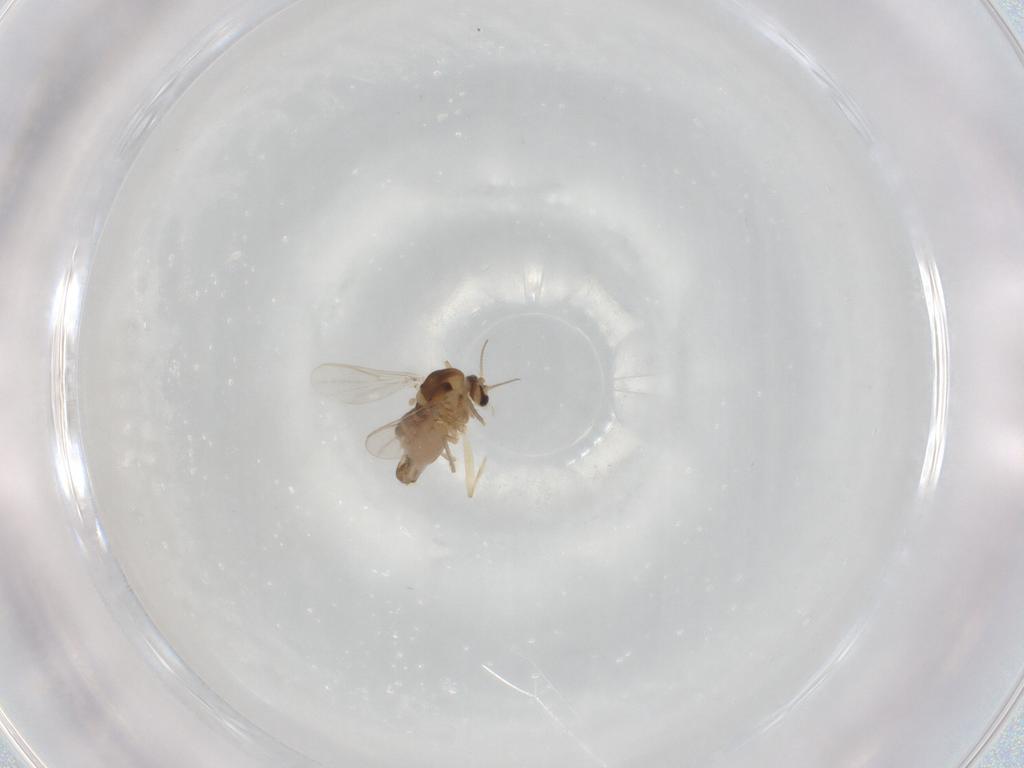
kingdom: Animalia
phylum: Arthropoda
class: Insecta
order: Diptera
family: Chironomidae
